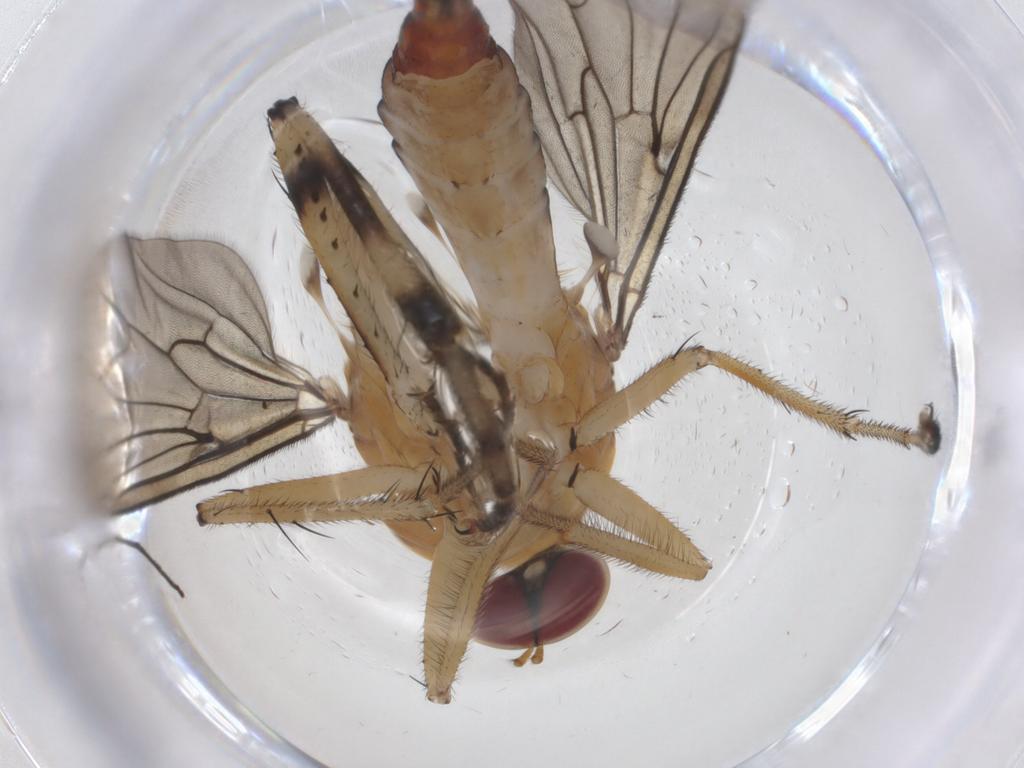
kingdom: Animalia
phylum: Arthropoda
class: Insecta
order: Diptera
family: Hybotidae
